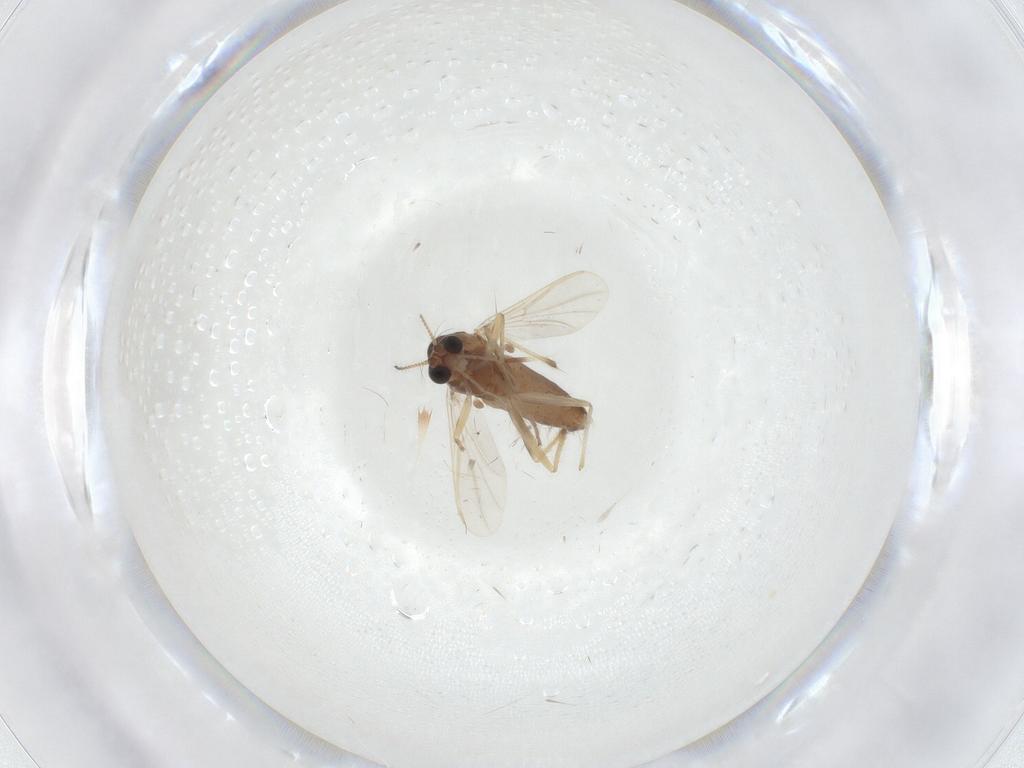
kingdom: Animalia
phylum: Arthropoda
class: Insecta
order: Diptera
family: Chironomidae
